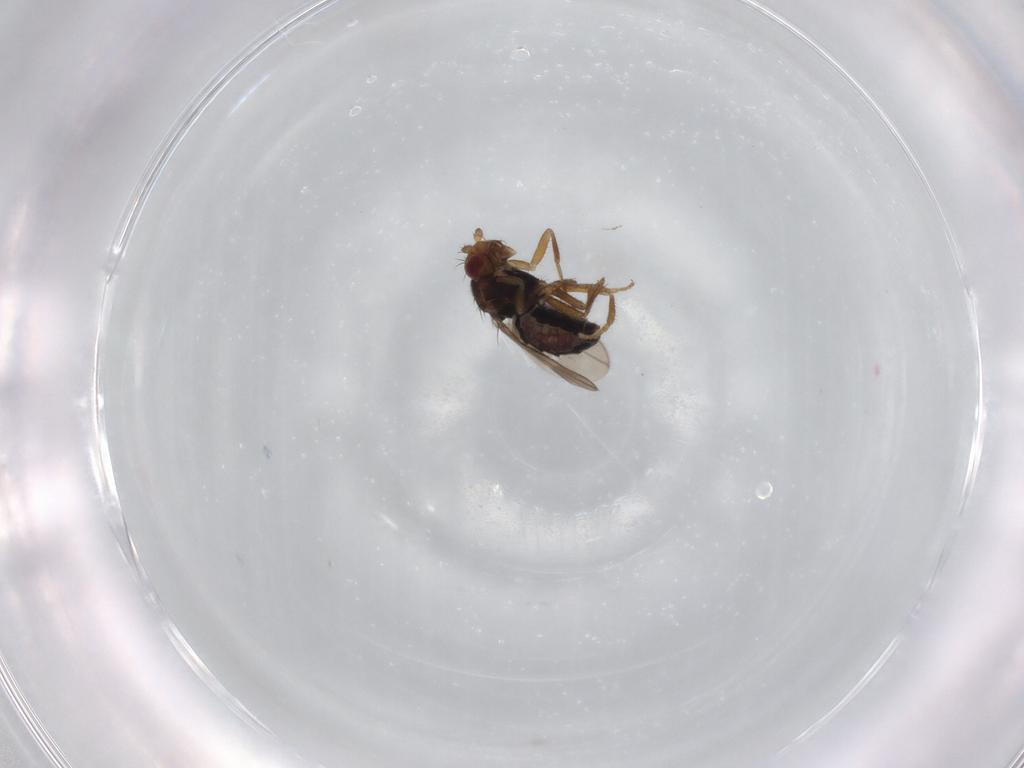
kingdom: Animalia
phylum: Arthropoda
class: Insecta
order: Diptera
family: Sphaeroceridae
